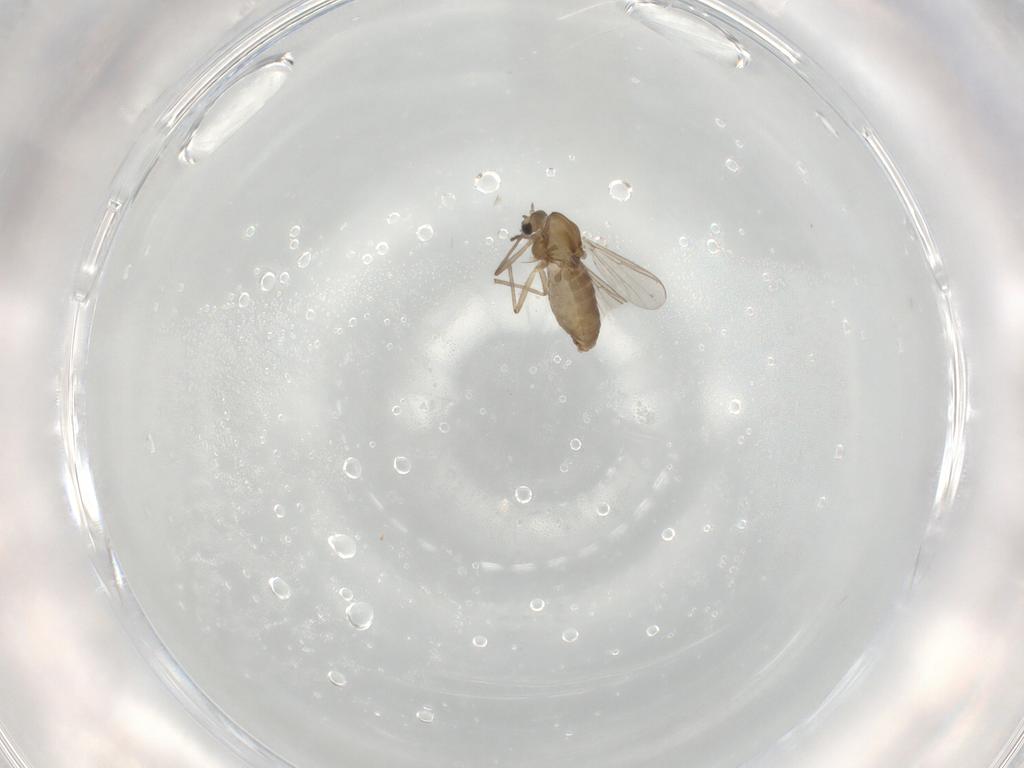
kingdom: Animalia
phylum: Arthropoda
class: Insecta
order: Diptera
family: Chironomidae
